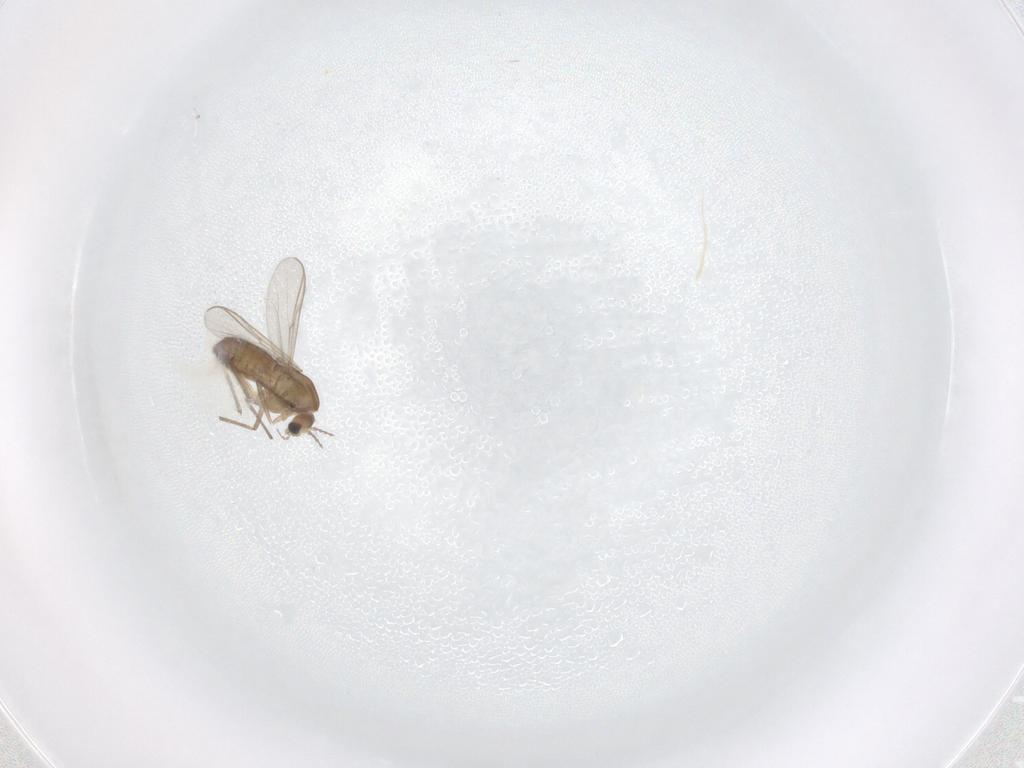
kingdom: Animalia
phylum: Arthropoda
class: Insecta
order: Diptera
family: Chironomidae
